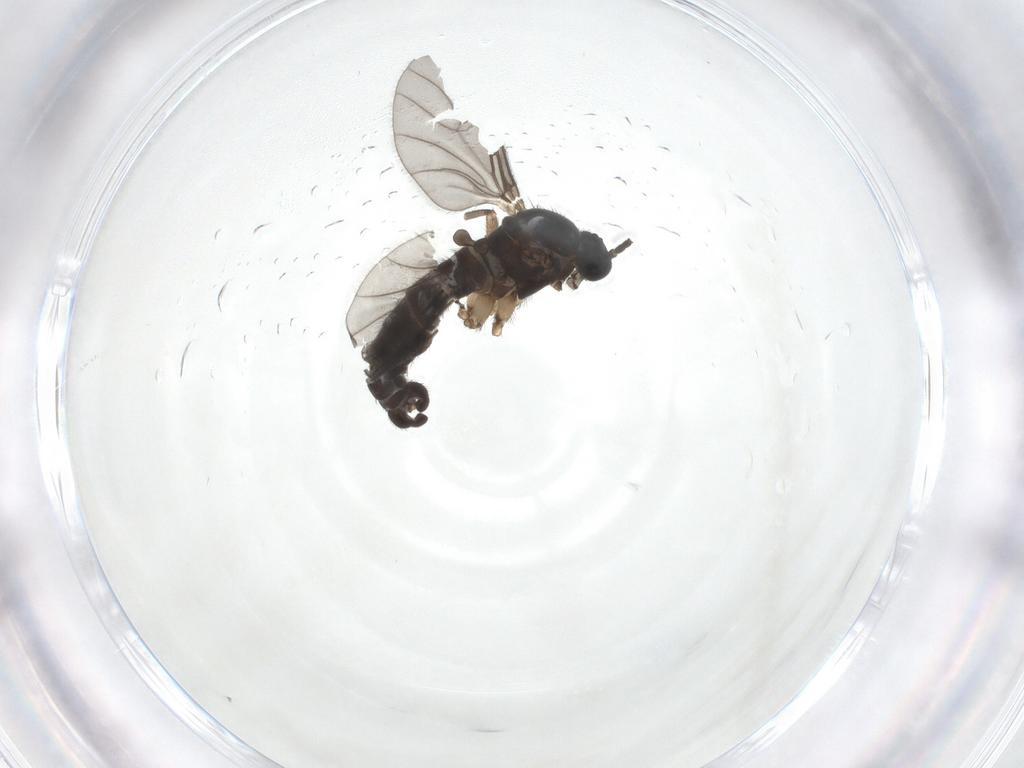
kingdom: Animalia
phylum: Arthropoda
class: Insecta
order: Diptera
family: Sciaridae
